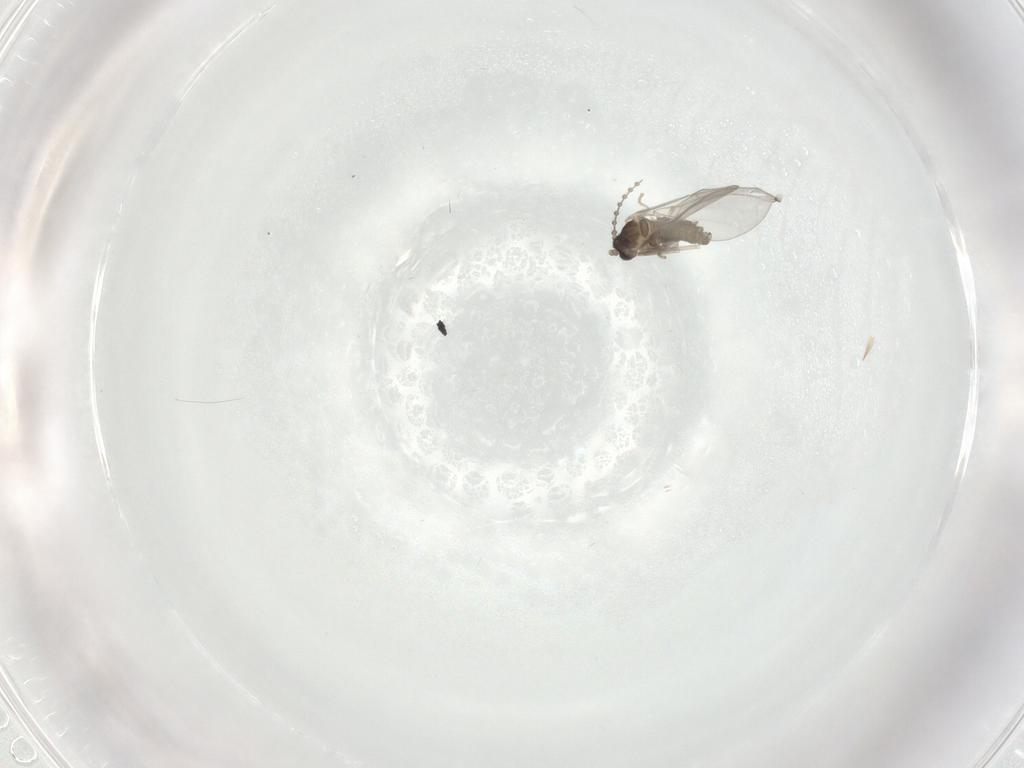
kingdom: Animalia
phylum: Arthropoda
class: Insecta
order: Diptera
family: Cecidomyiidae
